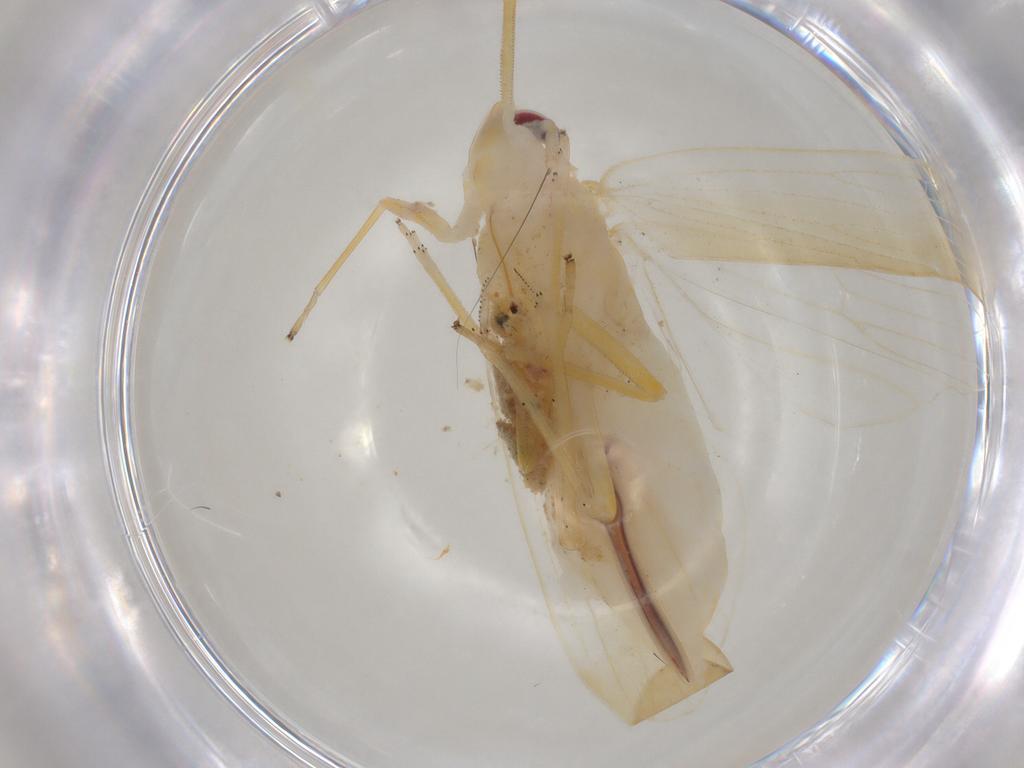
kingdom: Animalia
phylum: Arthropoda
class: Insecta
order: Hemiptera
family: Delphacidae
